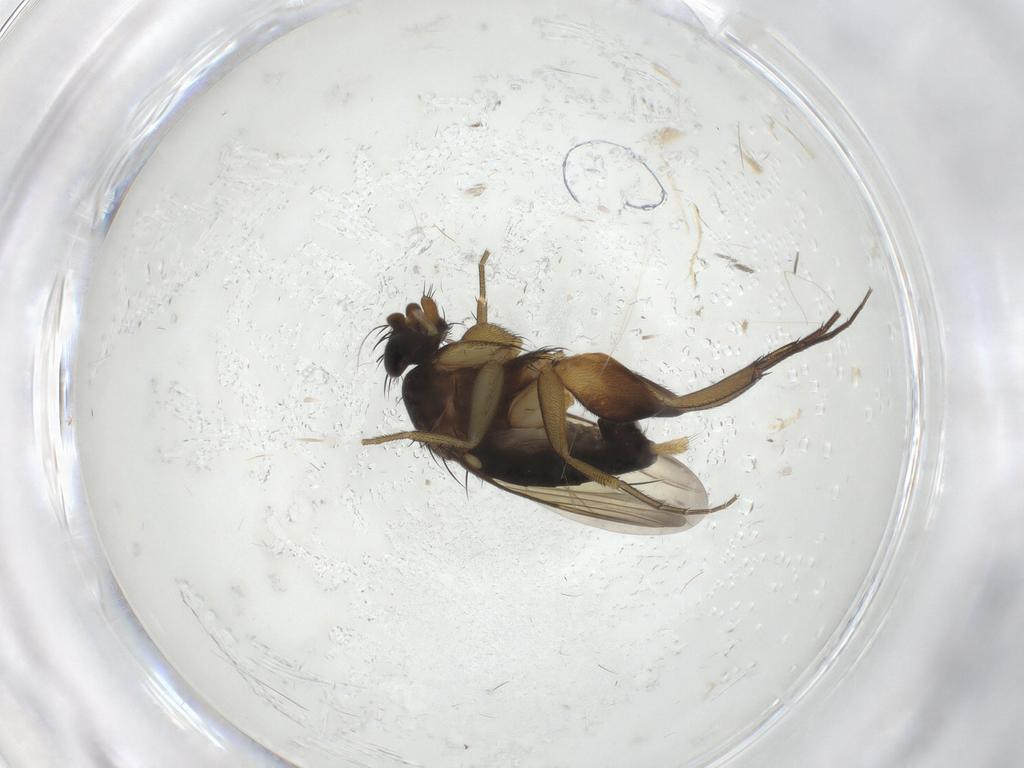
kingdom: Animalia
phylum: Arthropoda
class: Insecta
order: Diptera
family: Phoridae
